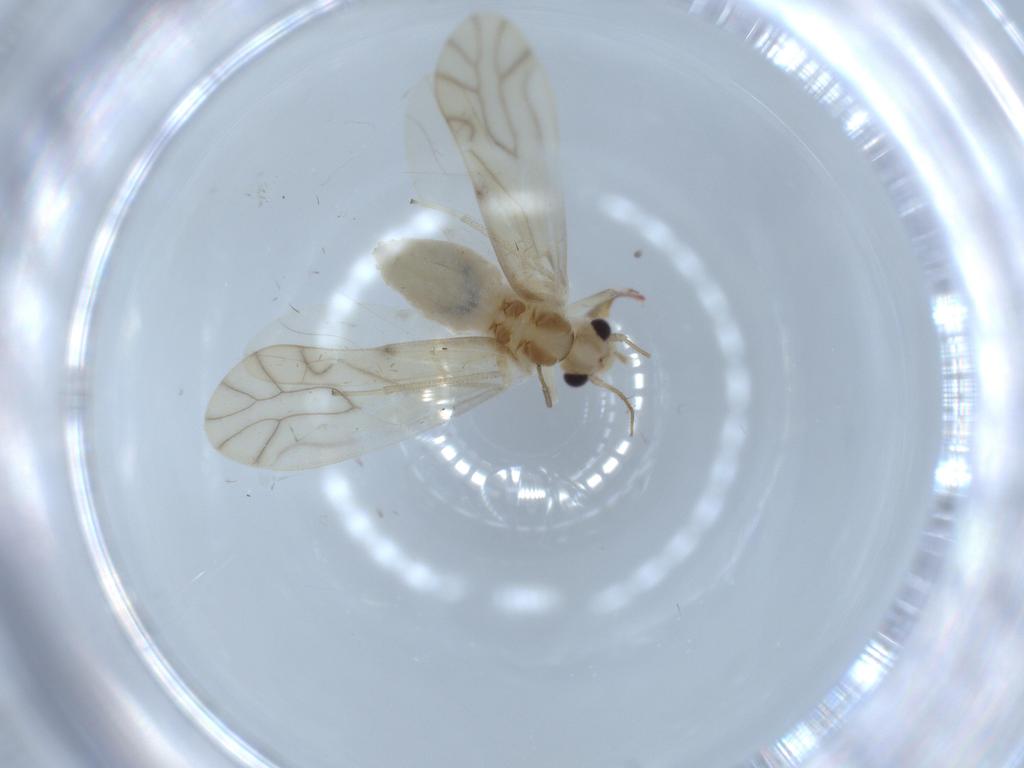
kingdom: Animalia
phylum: Arthropoda
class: Insecta
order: Psocodea
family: Caeciliusidae
